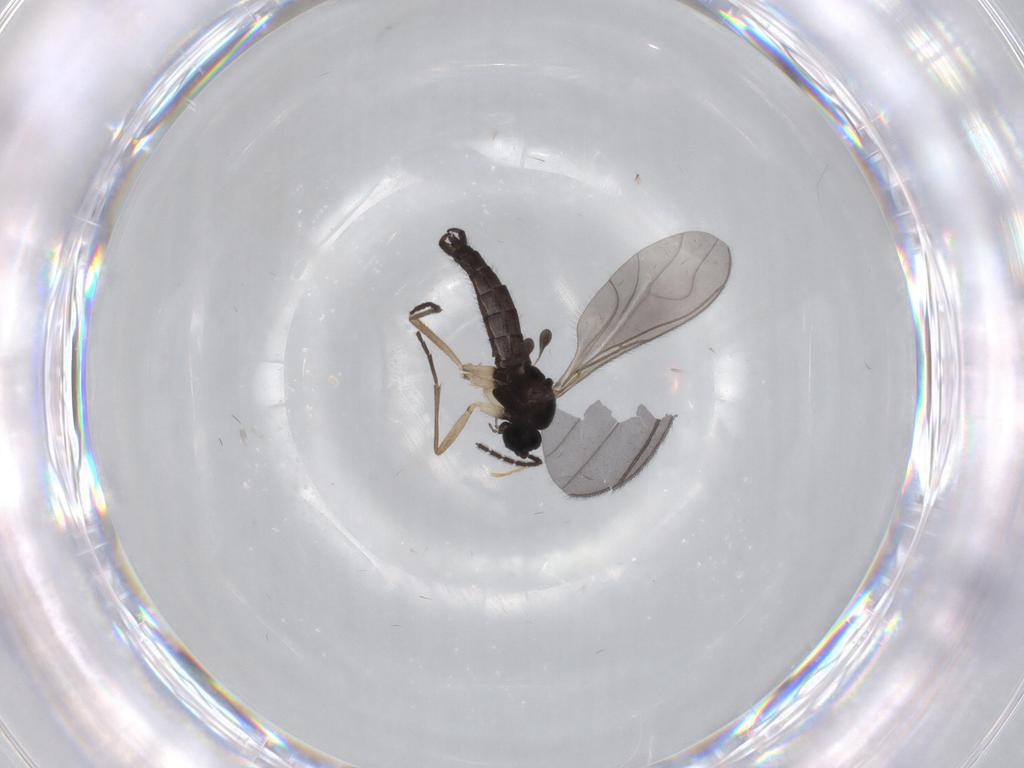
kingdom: Animalia
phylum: Arthropoda
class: Insecta
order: Diptera
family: Sciaridae
